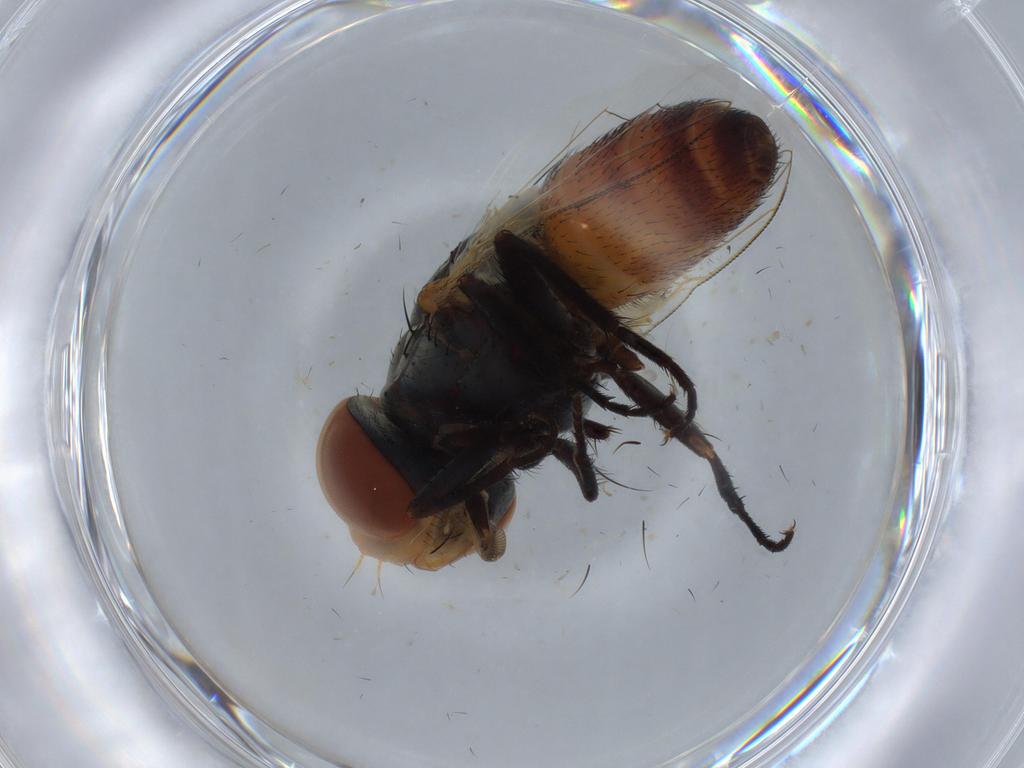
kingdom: Animalia
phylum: Arthropoda
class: Insecta
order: Diptera
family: Sarcophagidae
